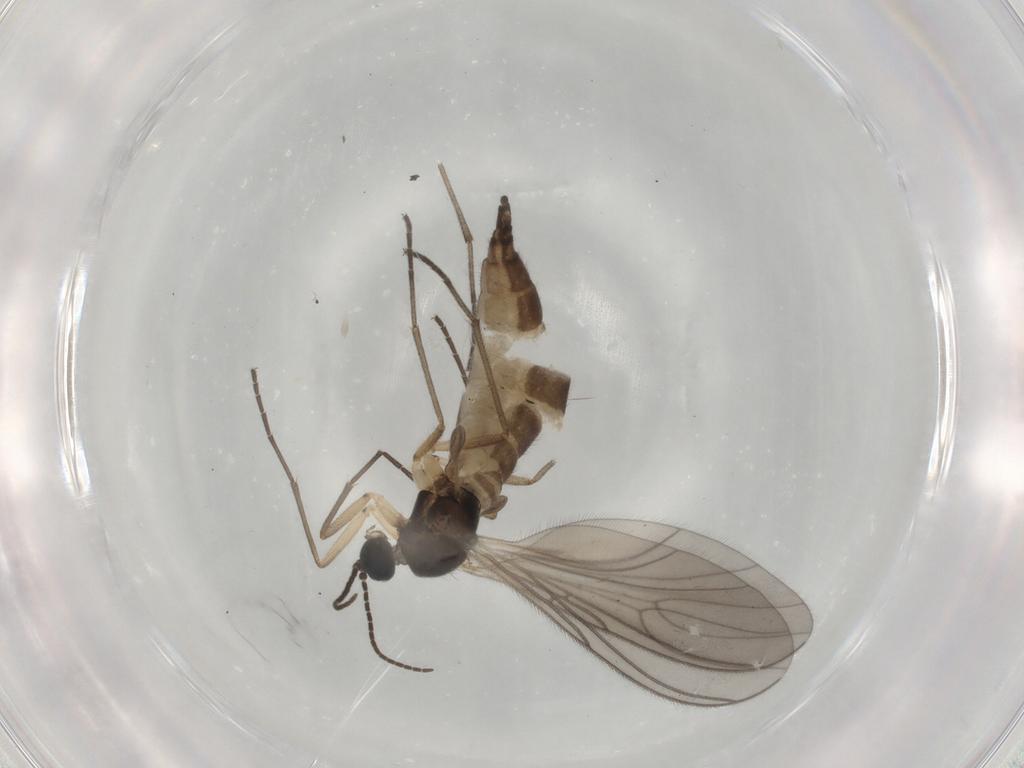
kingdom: Animalia
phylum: Arthropoda
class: Insecta
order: Diptera
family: Sciaridae
